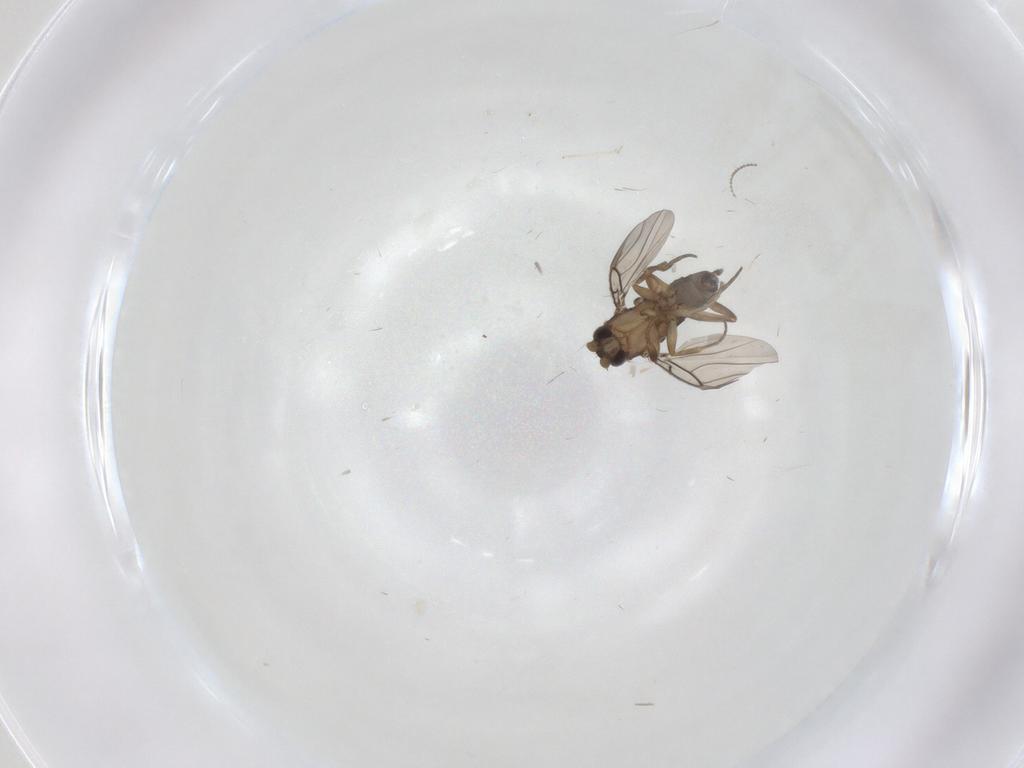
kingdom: Animalia
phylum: Arthropoda
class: Insecta
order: Diptera
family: Phoridae
